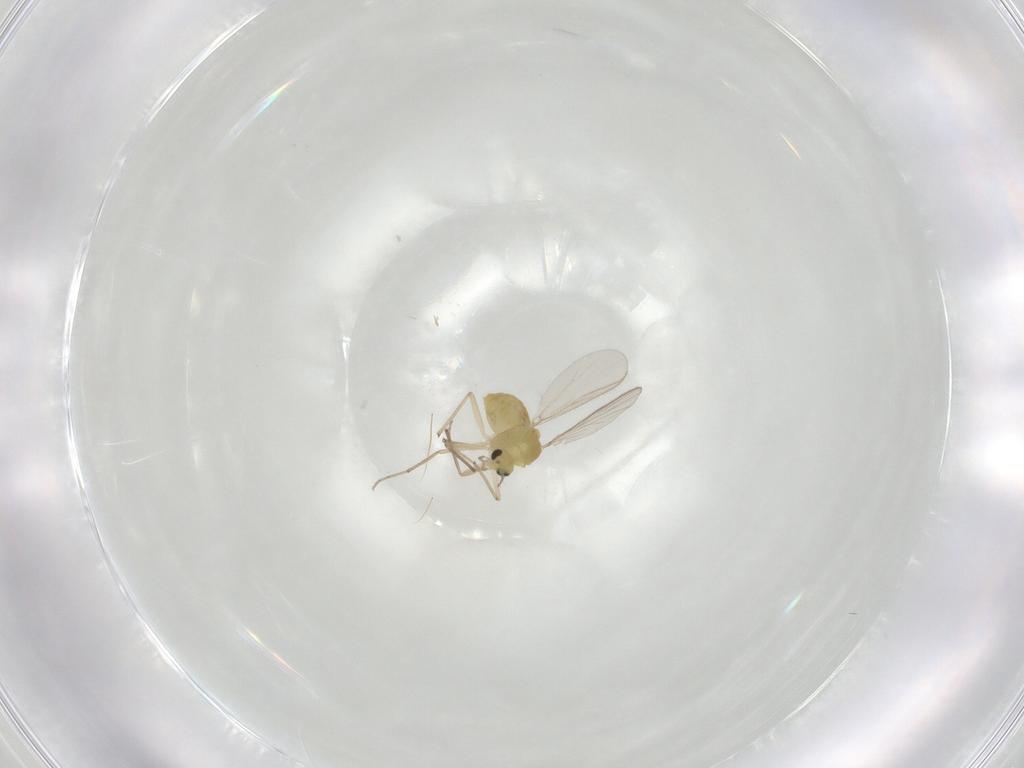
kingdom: Animalia
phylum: Arthropoda
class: Insecta
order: Diptera
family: Chironomidae
